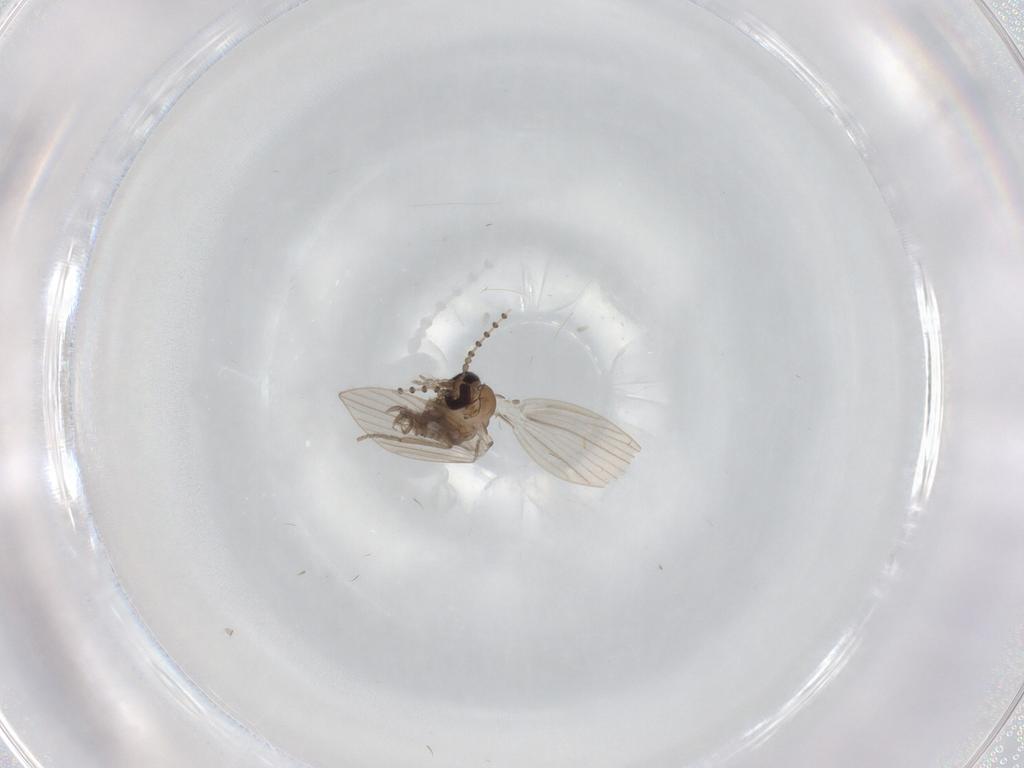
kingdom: Animalia
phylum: Arthropoda
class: Insecta
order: Diptera
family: Psychodidae
